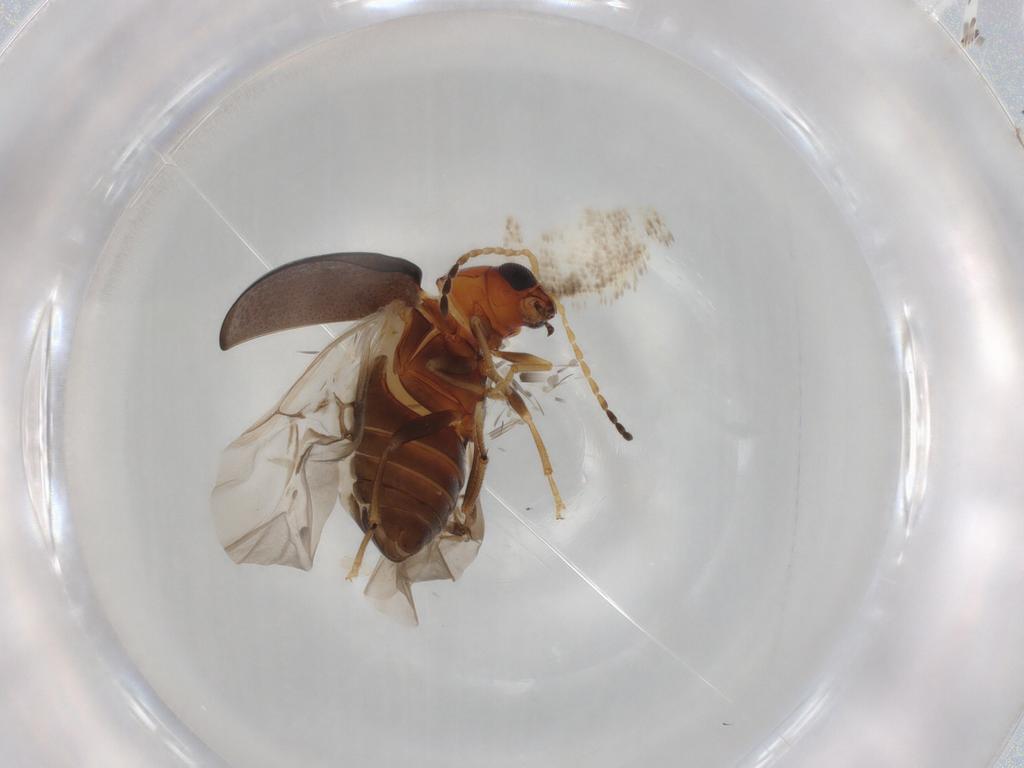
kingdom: Animalia
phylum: Arthropoda
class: Insecta
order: Coleoptera
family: Chrysomelidae
